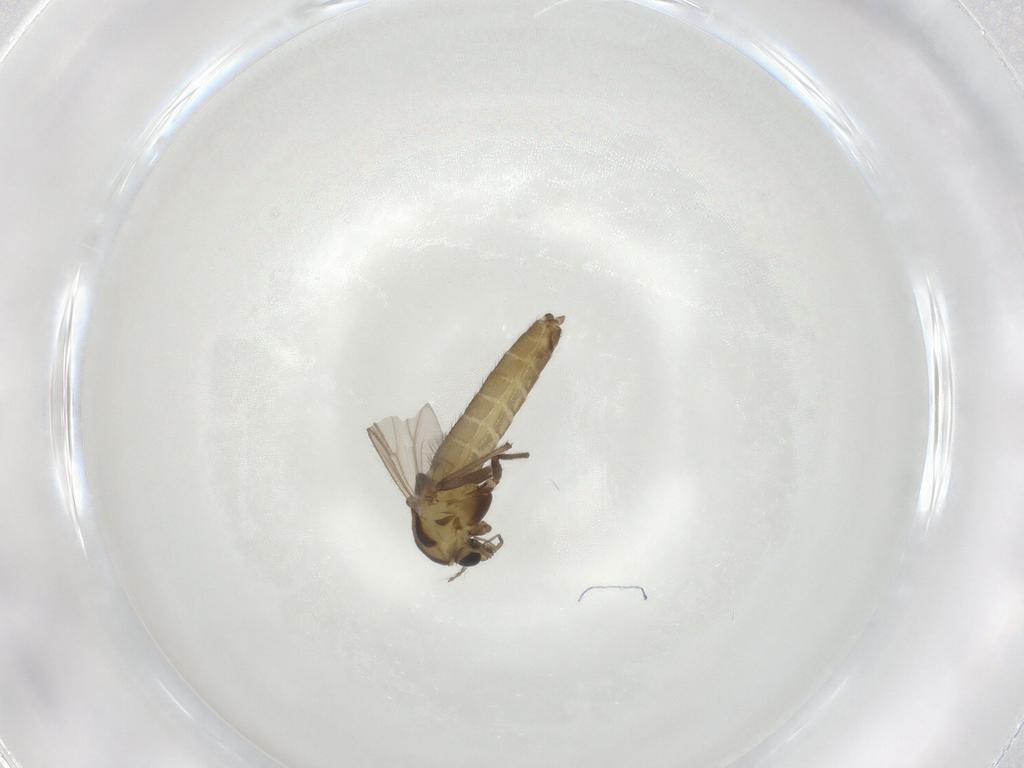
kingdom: Animalia
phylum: Arthropoda
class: Insecta
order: Diptera
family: Chironomidae
